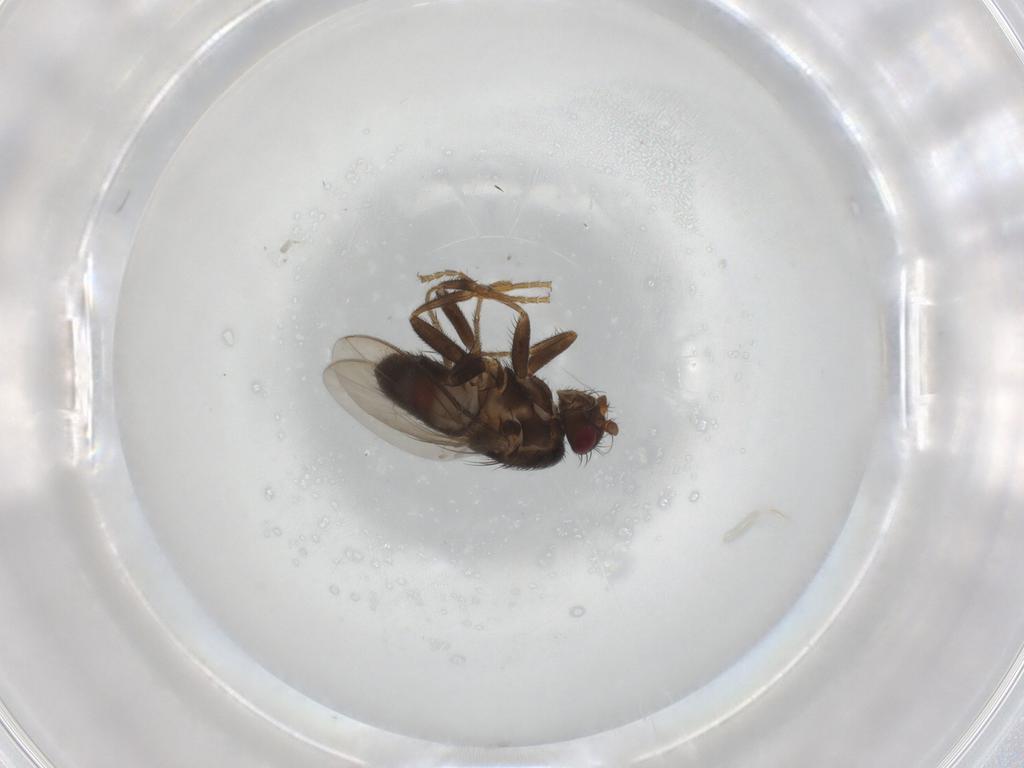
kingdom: Animalia
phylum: Arthropoda
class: Insecta
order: Diptera
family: Sphaeroceridae
